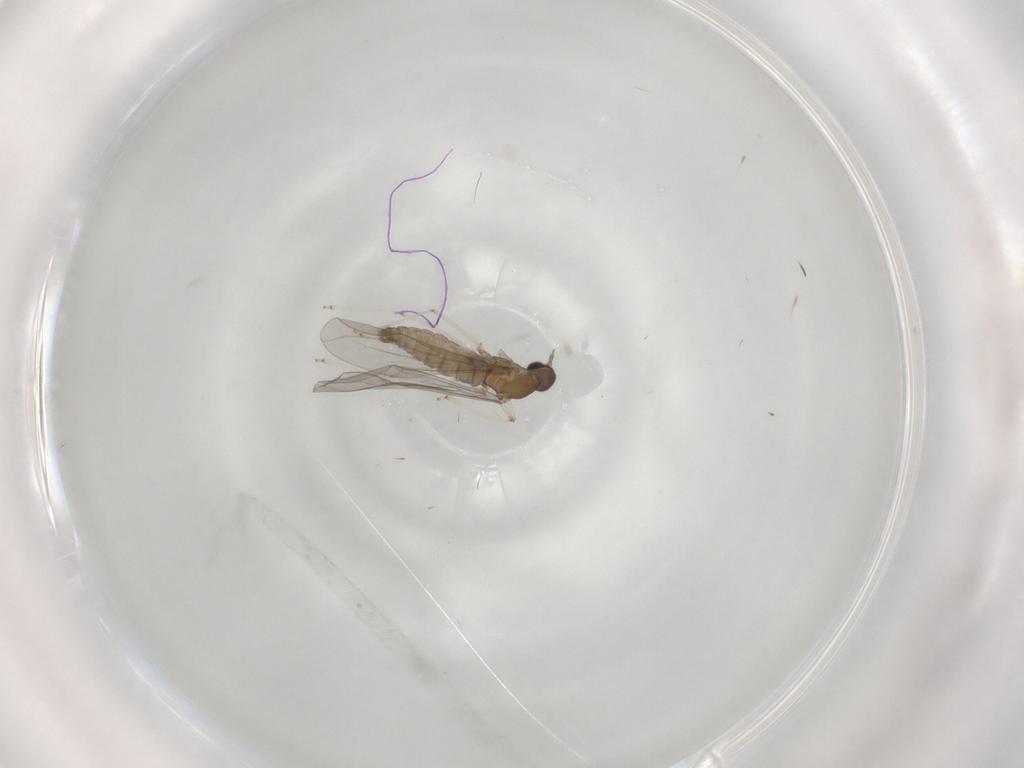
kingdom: Animalia
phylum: Arthropoda
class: Insecta
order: Diptera
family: Cecidomyiidae
